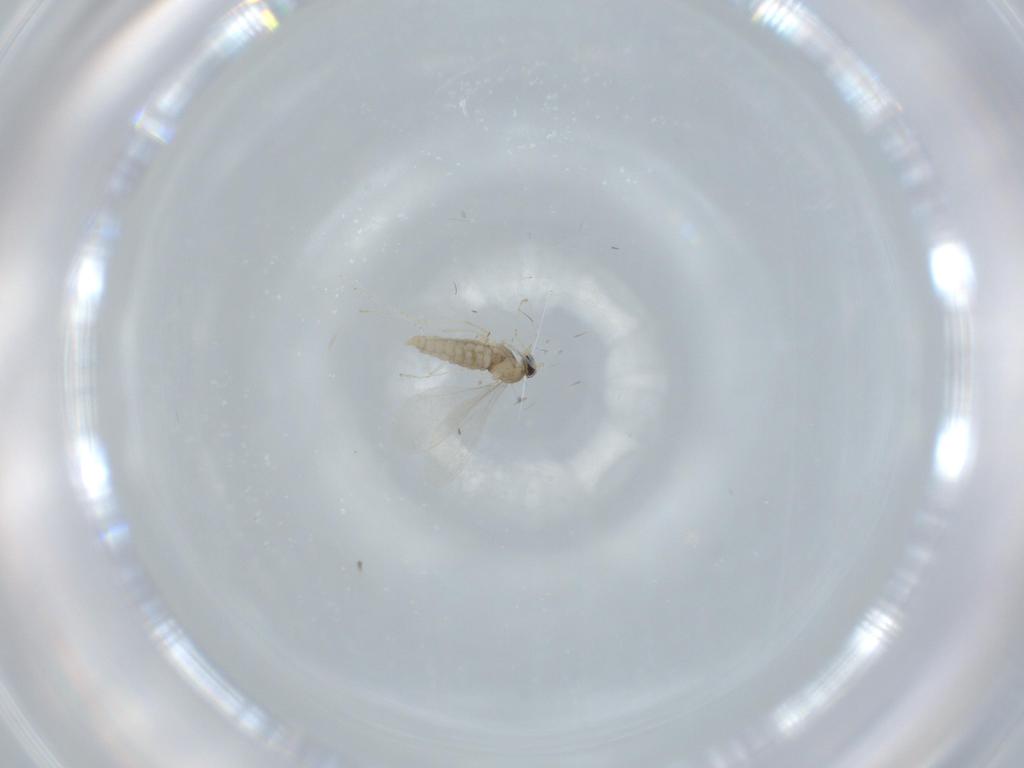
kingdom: Animalia
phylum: Arthropoda
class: Insecta
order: Diptera
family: Cecidomyiidae
